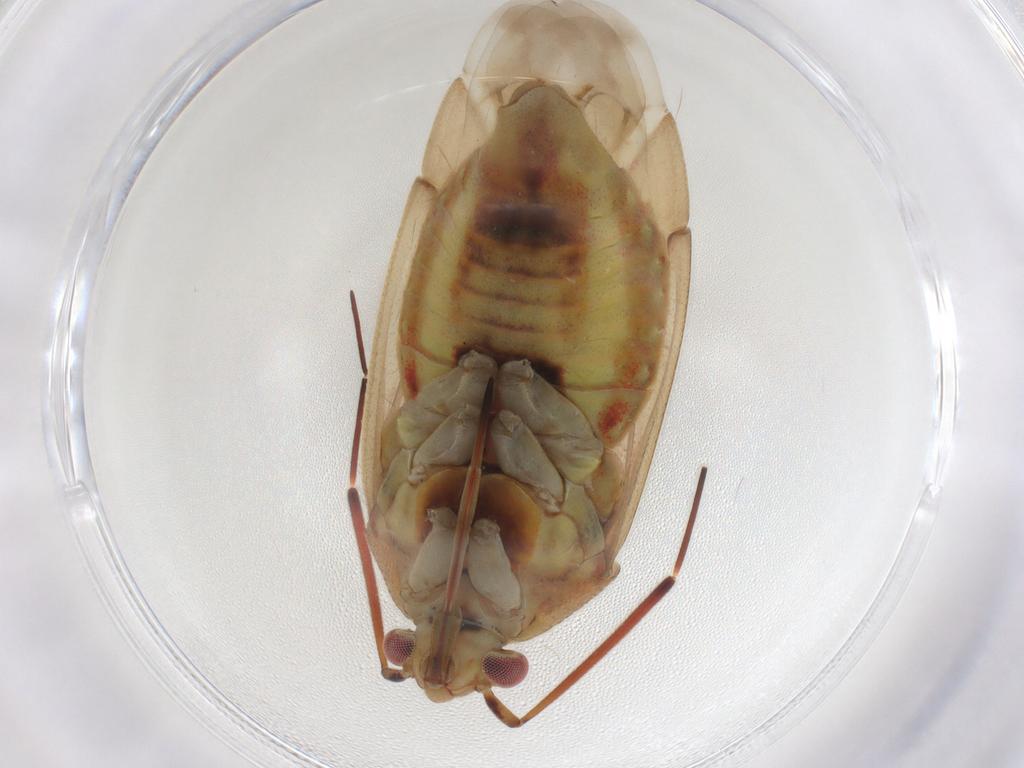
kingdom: Animalia
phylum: Arthropoda
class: Insecta
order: Hemiptera
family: Miridae
